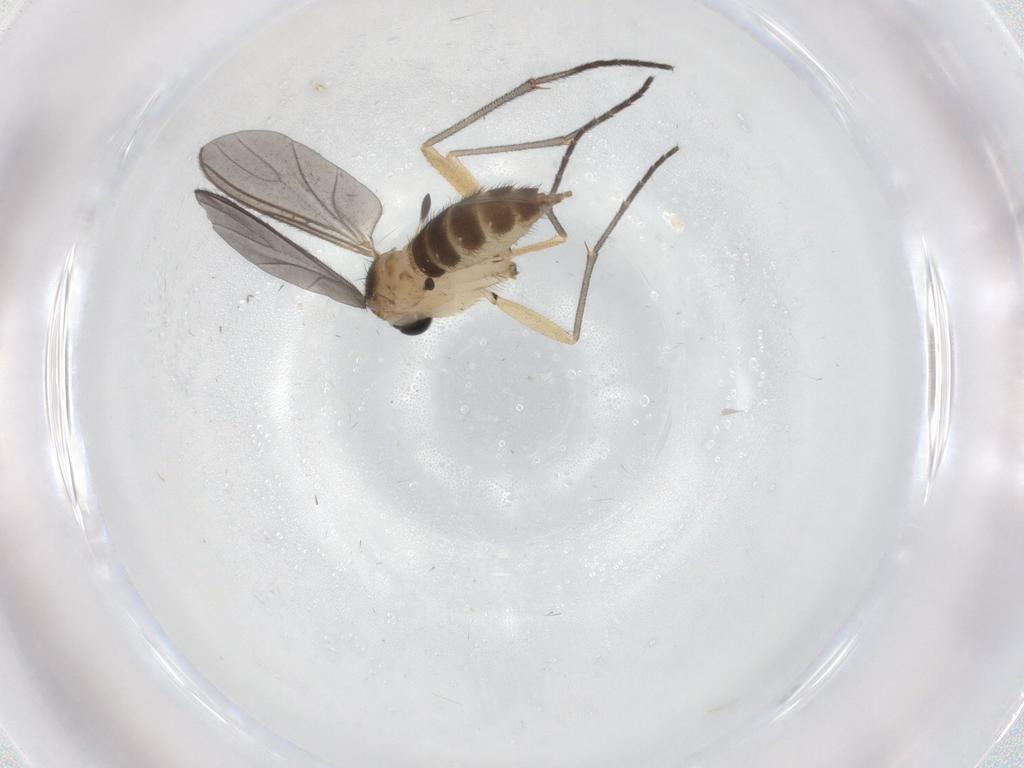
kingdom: Animalia
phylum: Arthropoda
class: Insecta
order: Diptera
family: Sciaridae
